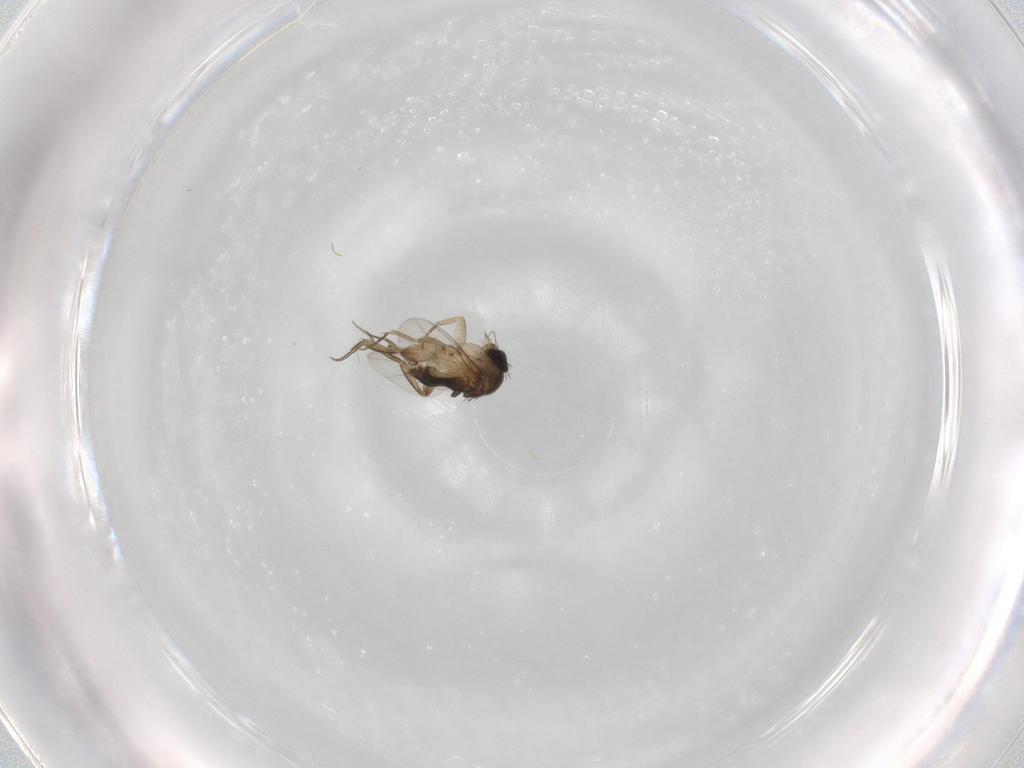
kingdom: Animalia
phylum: Arthropoda
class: Insecta
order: Diptera
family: Phoridae
